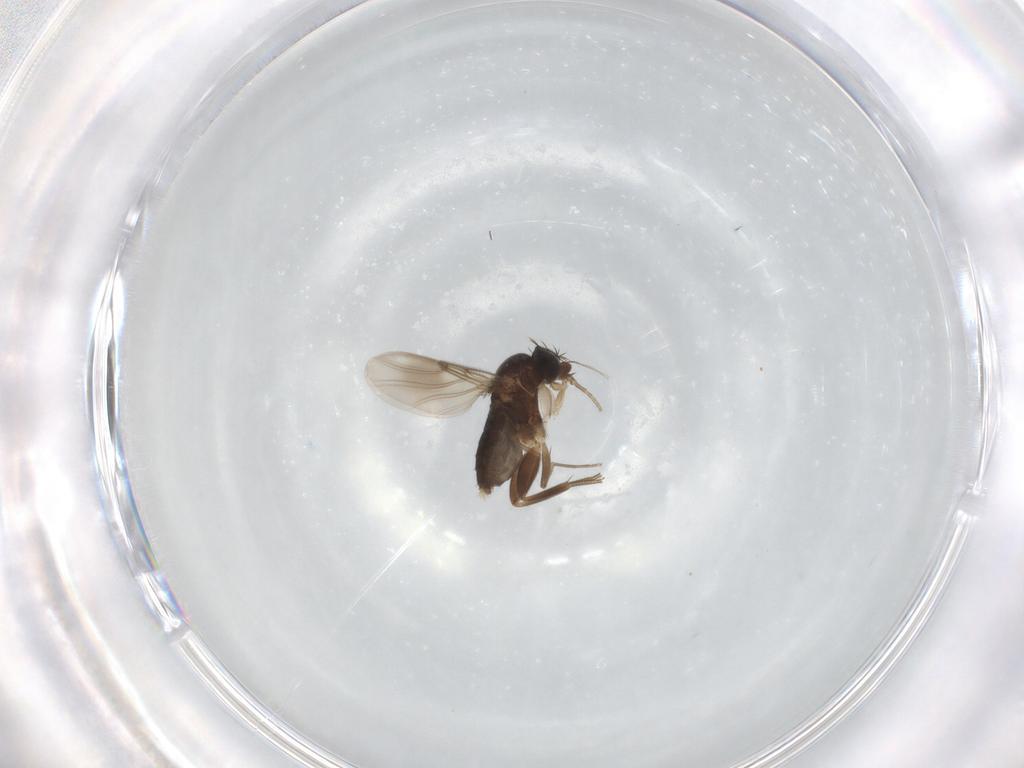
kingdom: Animalia
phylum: Arthropoda
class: Insecta
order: Diptera
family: Phoridae
